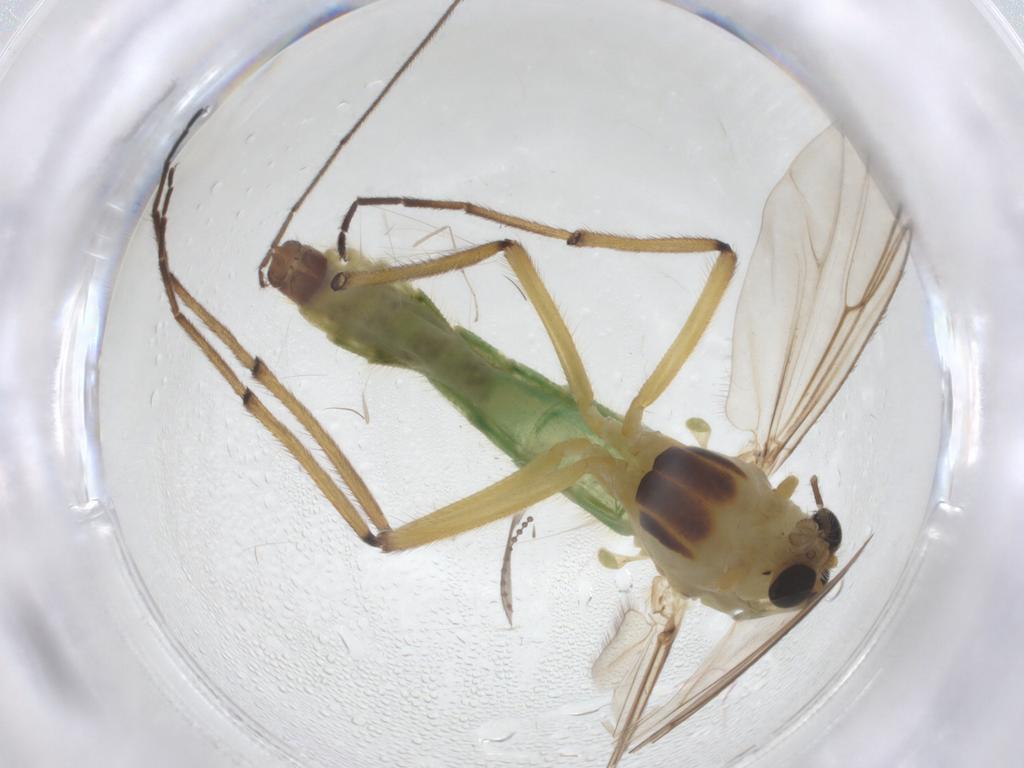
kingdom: Animalia
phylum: Arthropoda
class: Insecta
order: Diptera
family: Chironomidae
